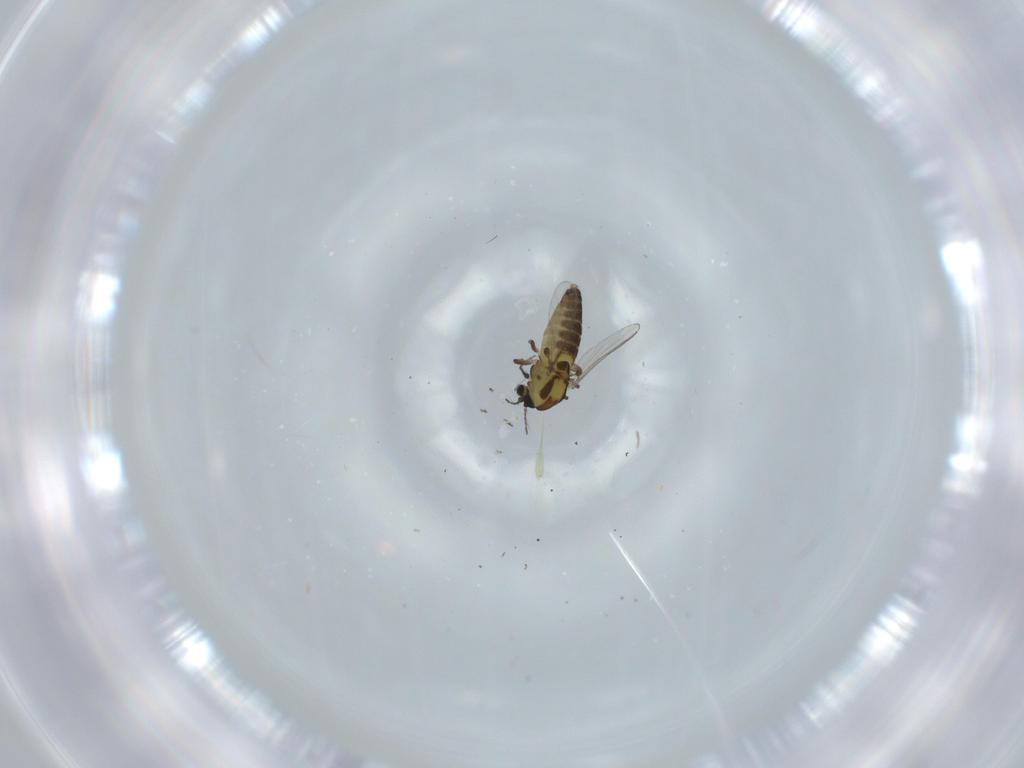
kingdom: Animalia
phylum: Arthropoda
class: Insecta
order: Diptera
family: Chironomidae
